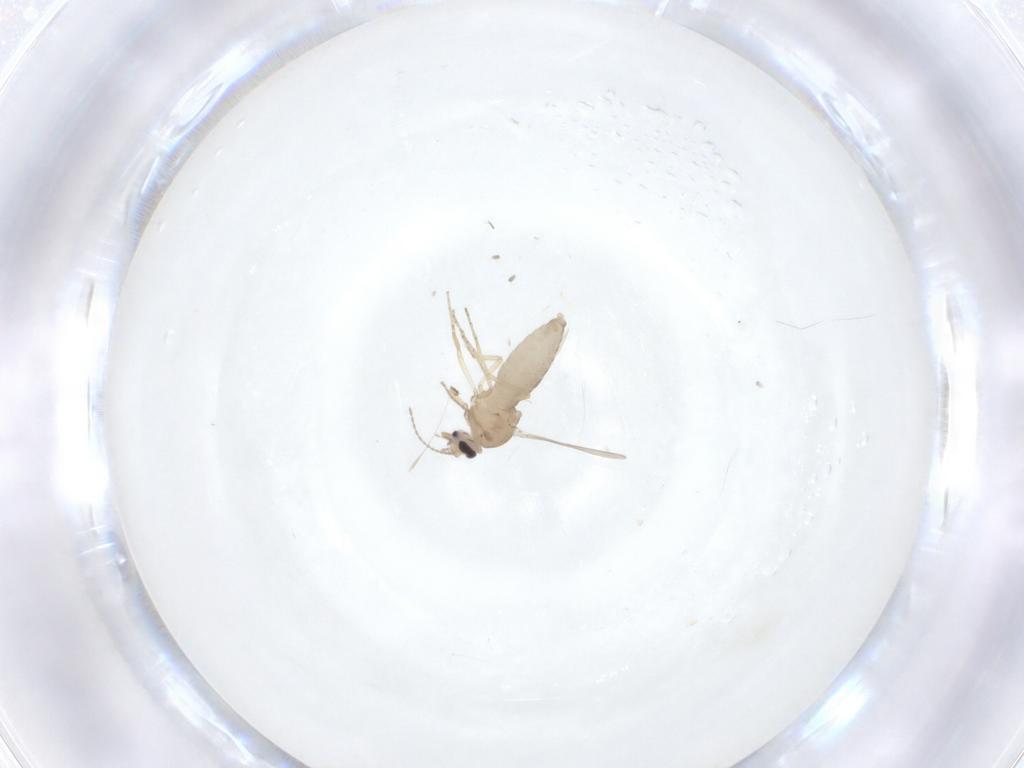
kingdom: Animalia
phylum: Arthropoda
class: Insecta
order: Diptera
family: Ceratopogonidae
